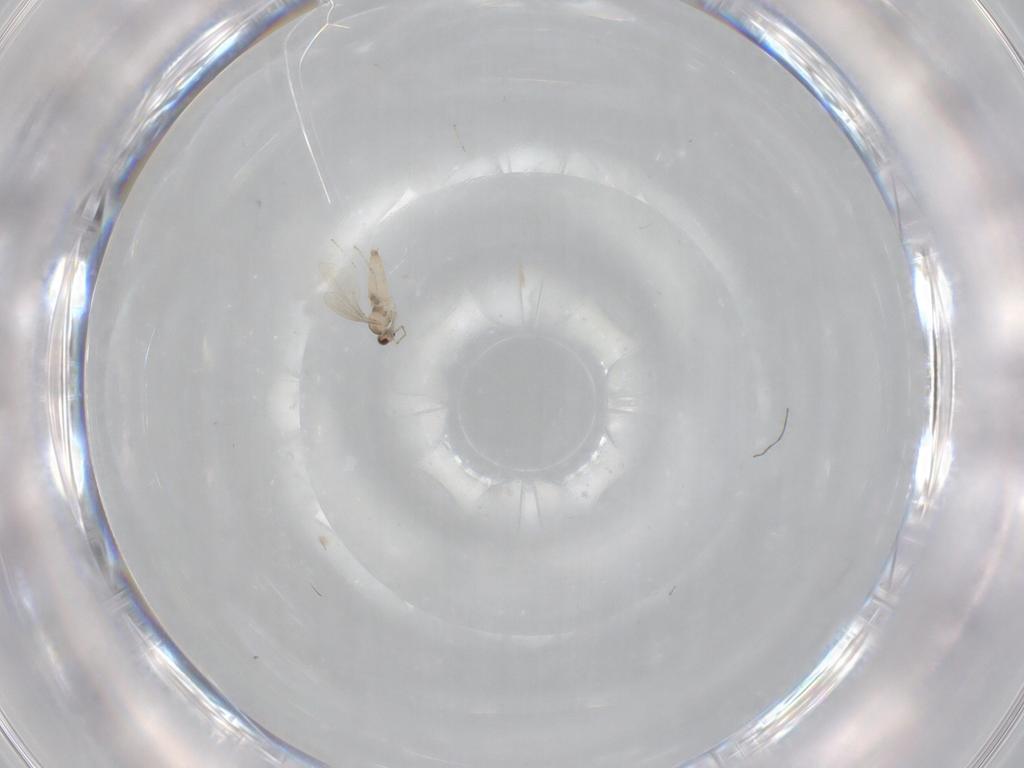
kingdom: Animalia
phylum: Arthropoda
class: Insecta
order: Diptera
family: Cecidomyiidae
